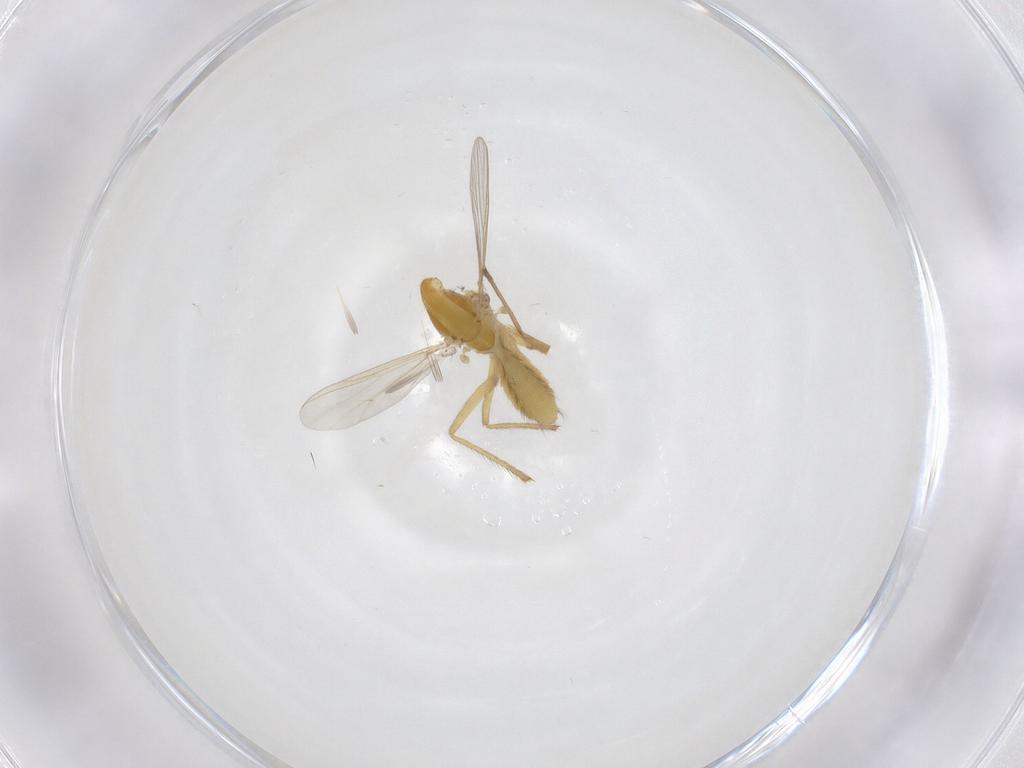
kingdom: Animalia
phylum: Arthropoda
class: Insecta
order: Diptera
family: Chironomidae
